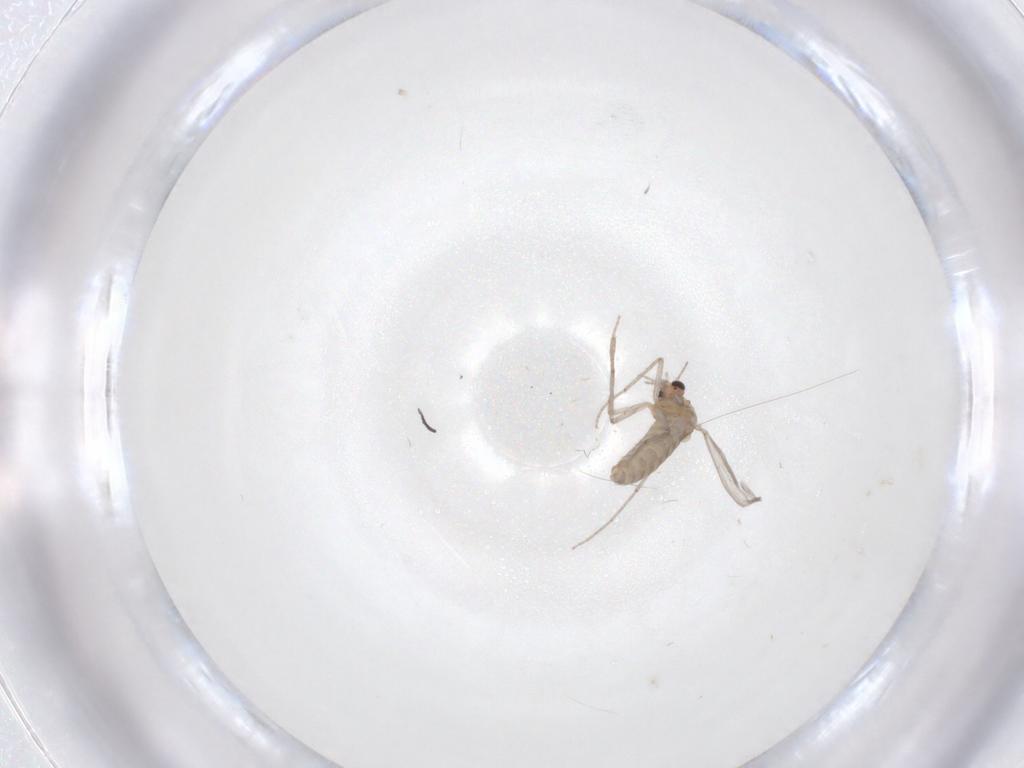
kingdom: Animalia
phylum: Arthropoda
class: Insecta
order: Diptera
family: Chironomidae
